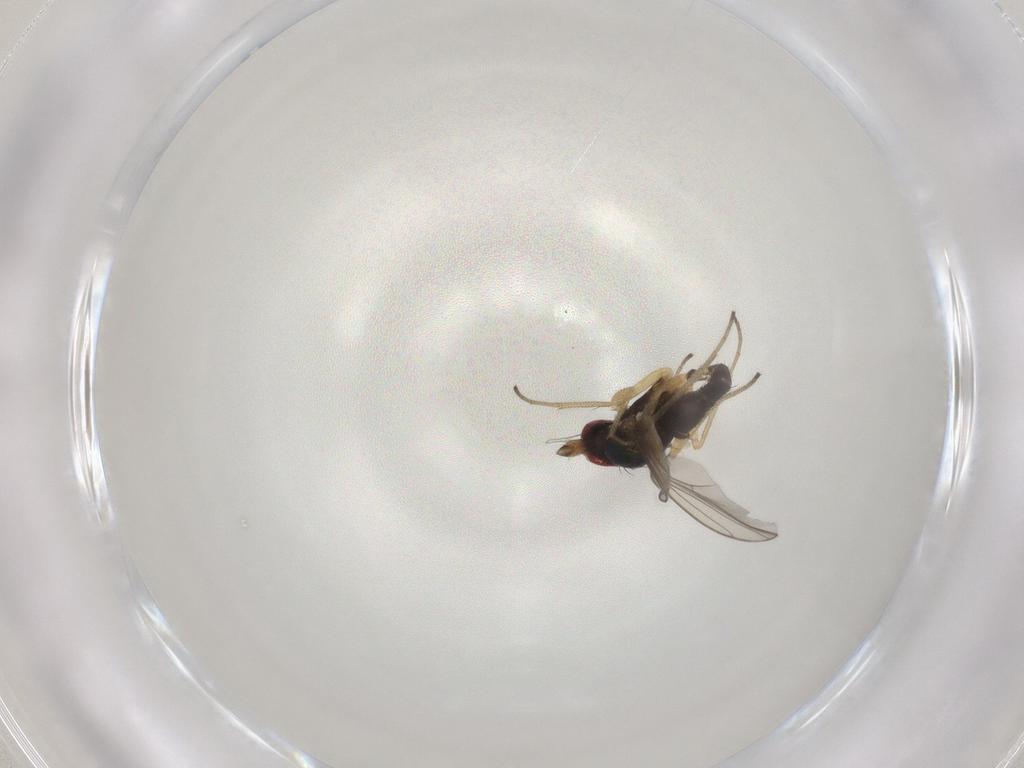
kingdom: Animalia
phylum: Arthropoda
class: Insecta
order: Diptera
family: Dolichopodidae
